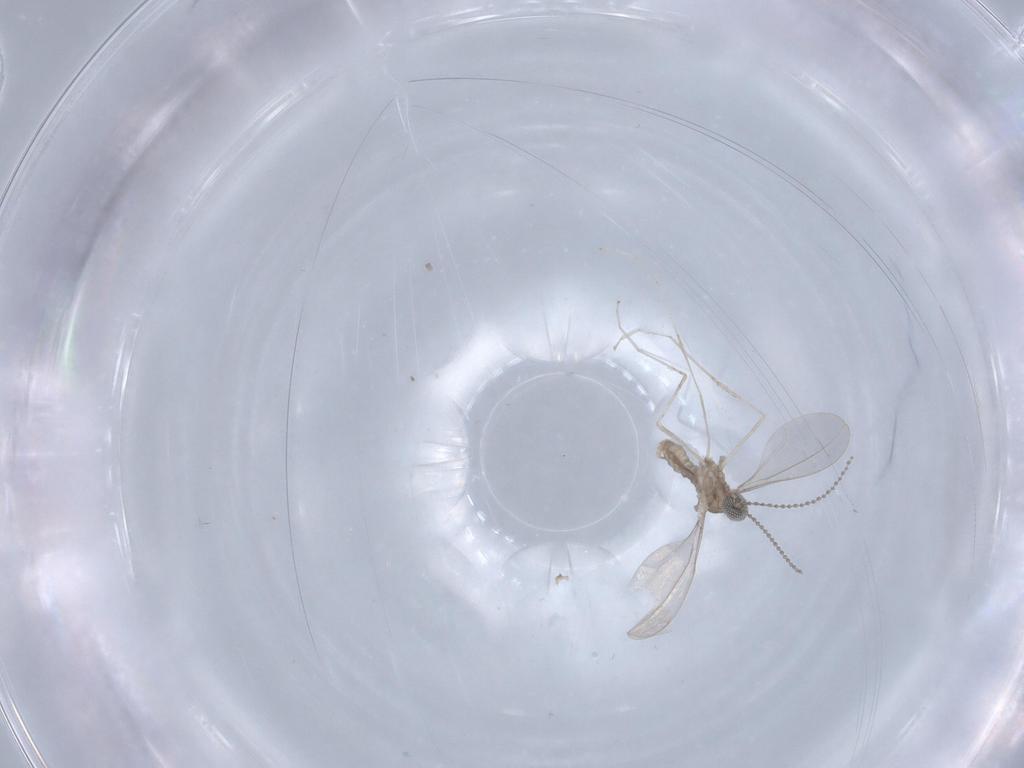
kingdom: Animalia
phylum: Arthropoda
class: Insecta
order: Diptera
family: Cecidomyiidae
